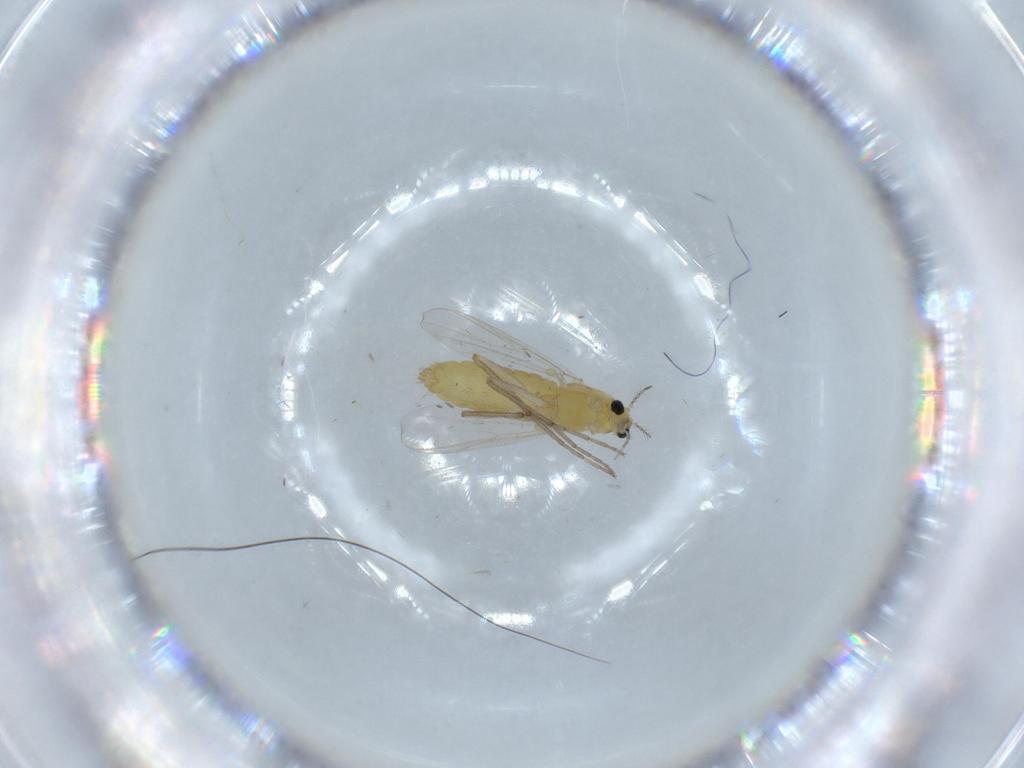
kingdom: Animalia
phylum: Arthropoda
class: Insecta
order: Diptera
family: Chironomidae
